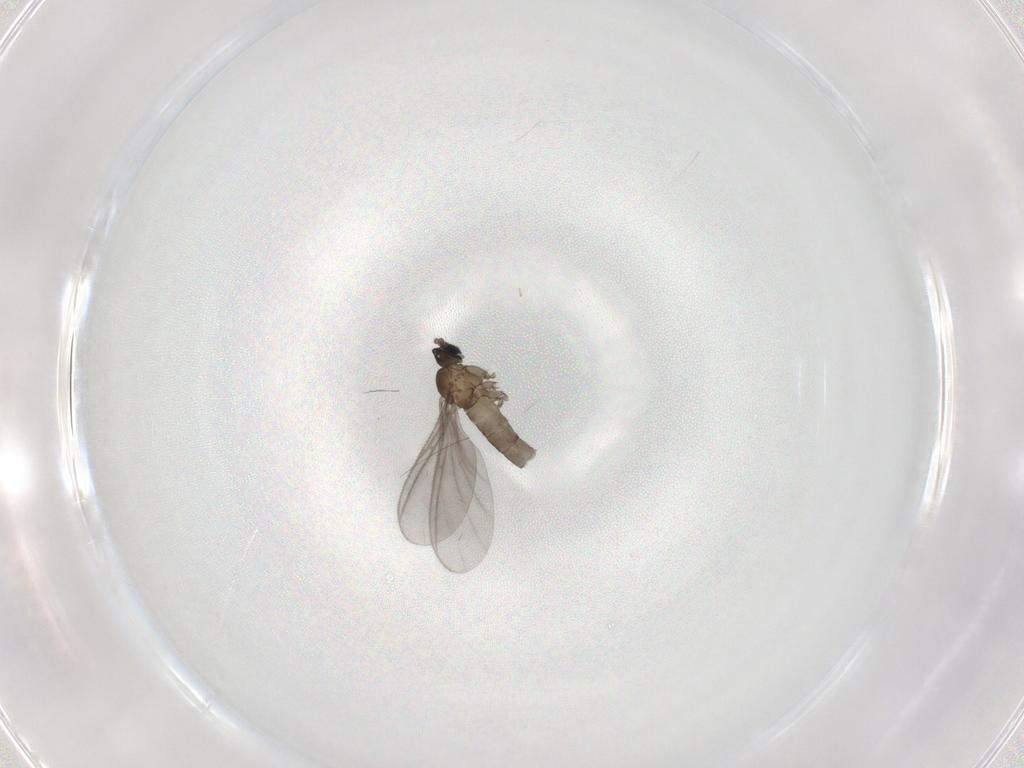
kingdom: Animalia
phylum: Arthropoda
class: Insecta
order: Diptera
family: Sciaridae
